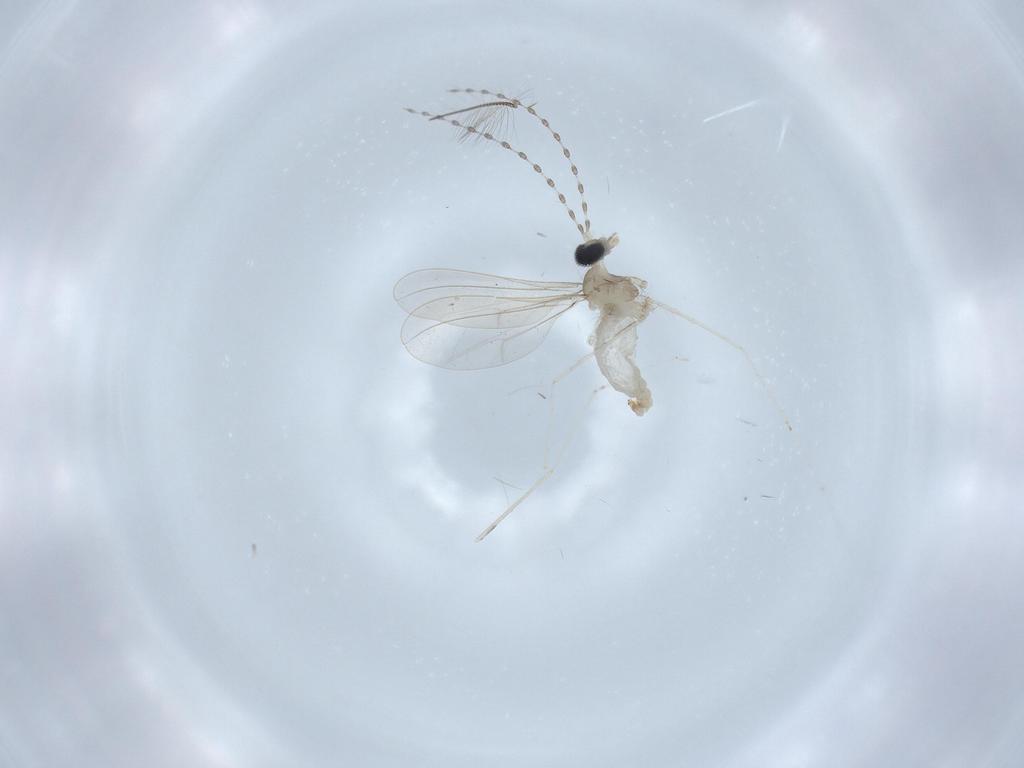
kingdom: Animalia
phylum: Arthropoda
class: Insecta
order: Diptera
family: Cecidomyiidae
